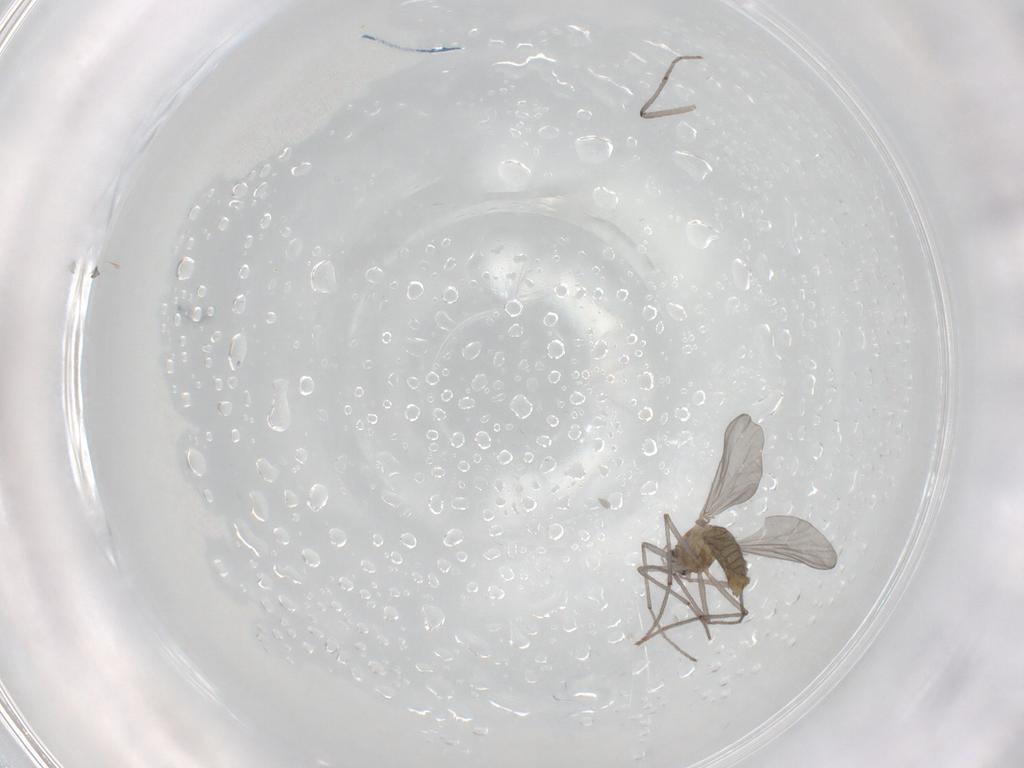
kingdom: Animalia
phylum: Arthropoda
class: Insecta
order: Diptera
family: Chironomidae
